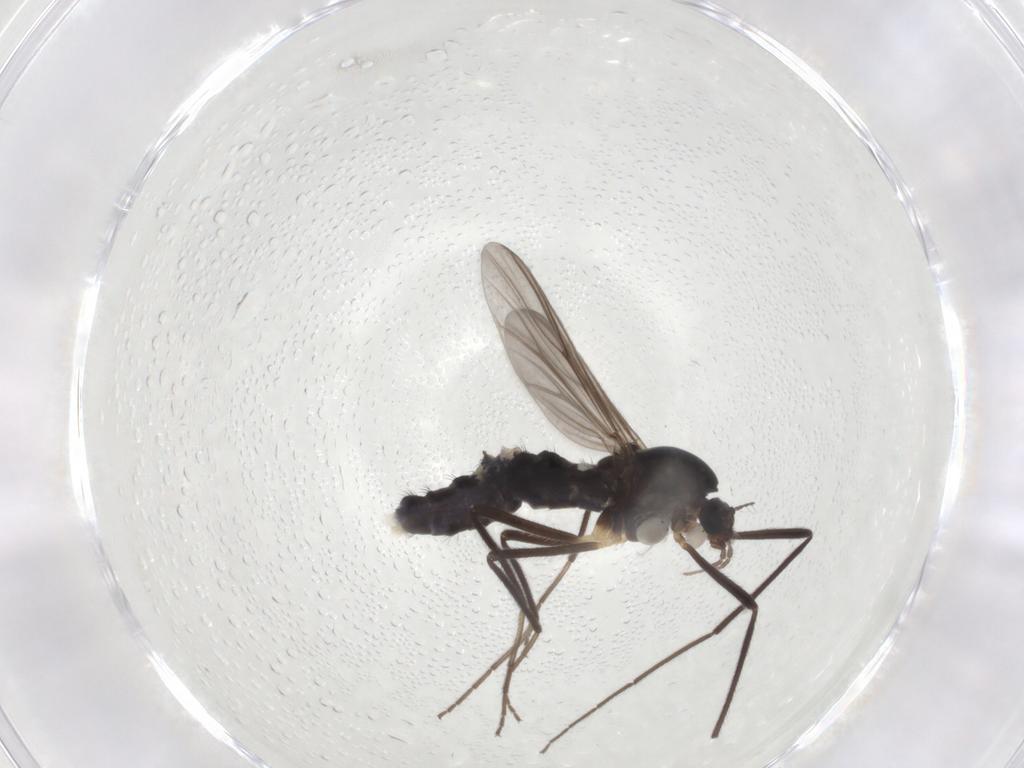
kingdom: Animalia
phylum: Arthropoda
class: Insecta
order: Diptera
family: Chironomidae
